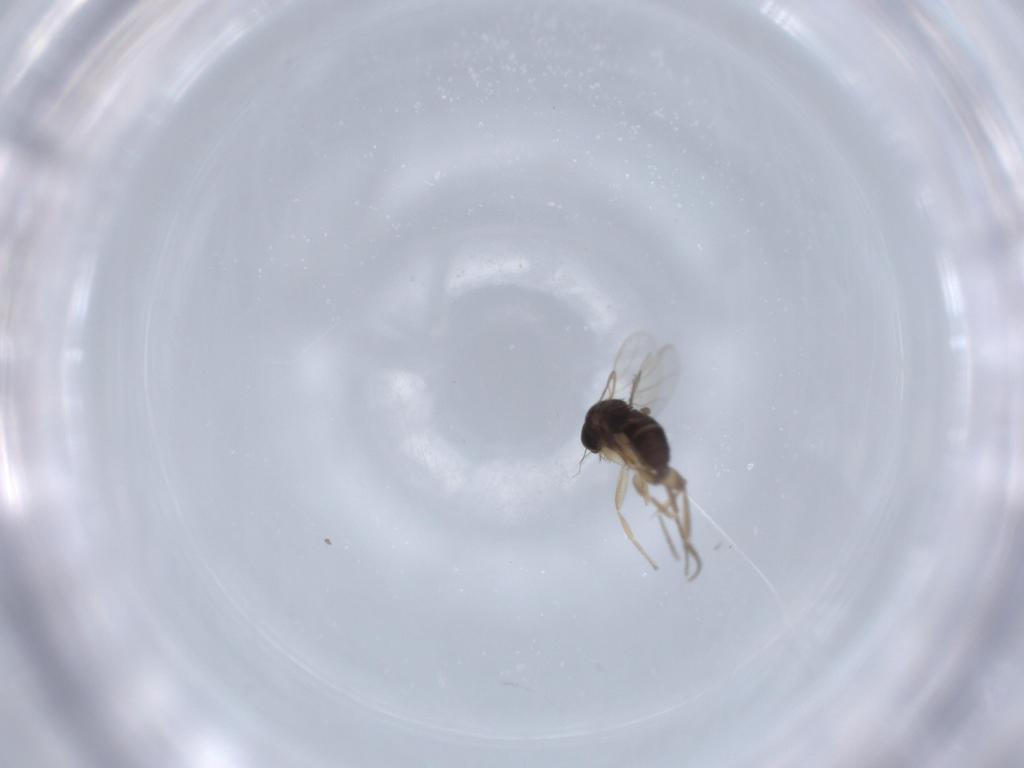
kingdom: Animalia
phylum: Arthropoda
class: Insecta
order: Diptera
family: Phoridae
